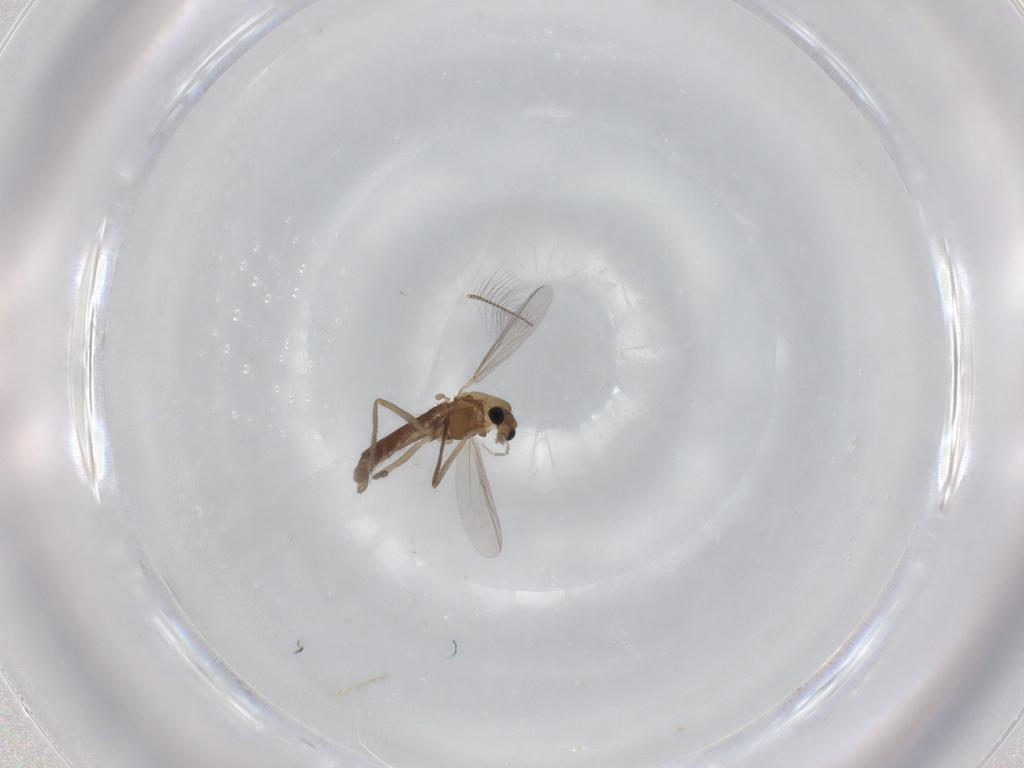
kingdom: Animalia
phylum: Arthropoda
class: Insecta
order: Diptera
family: Chironomidae
